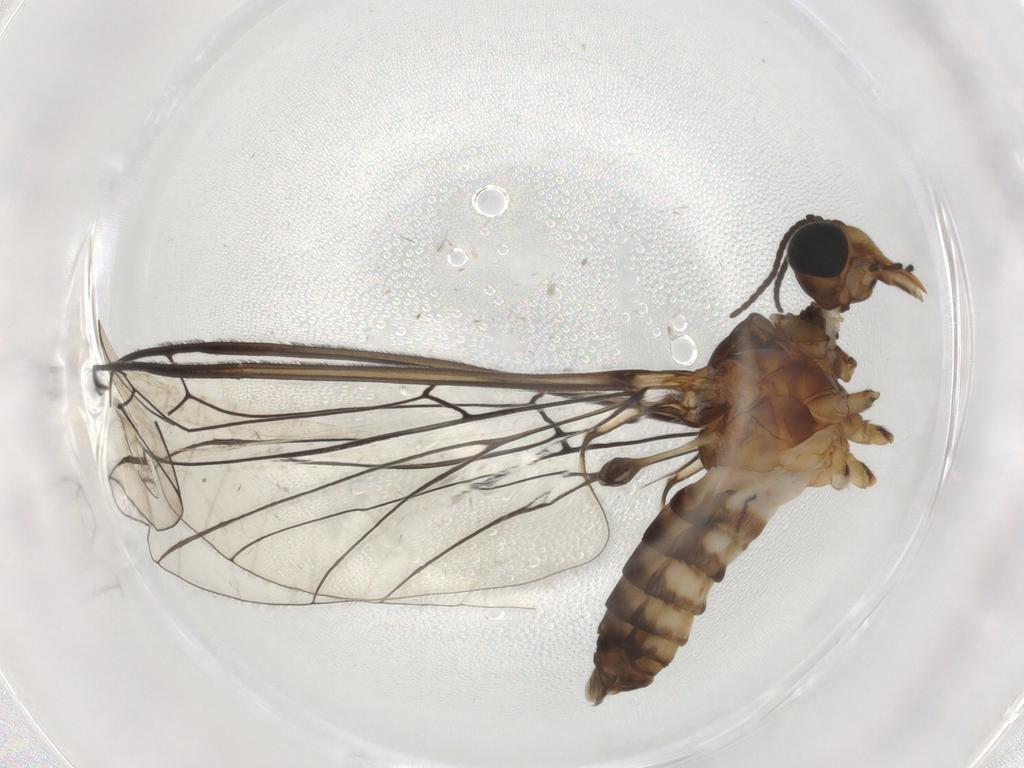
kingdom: Animalia
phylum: Arthropoda
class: Insecta
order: Diptera
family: Blephariceridae
